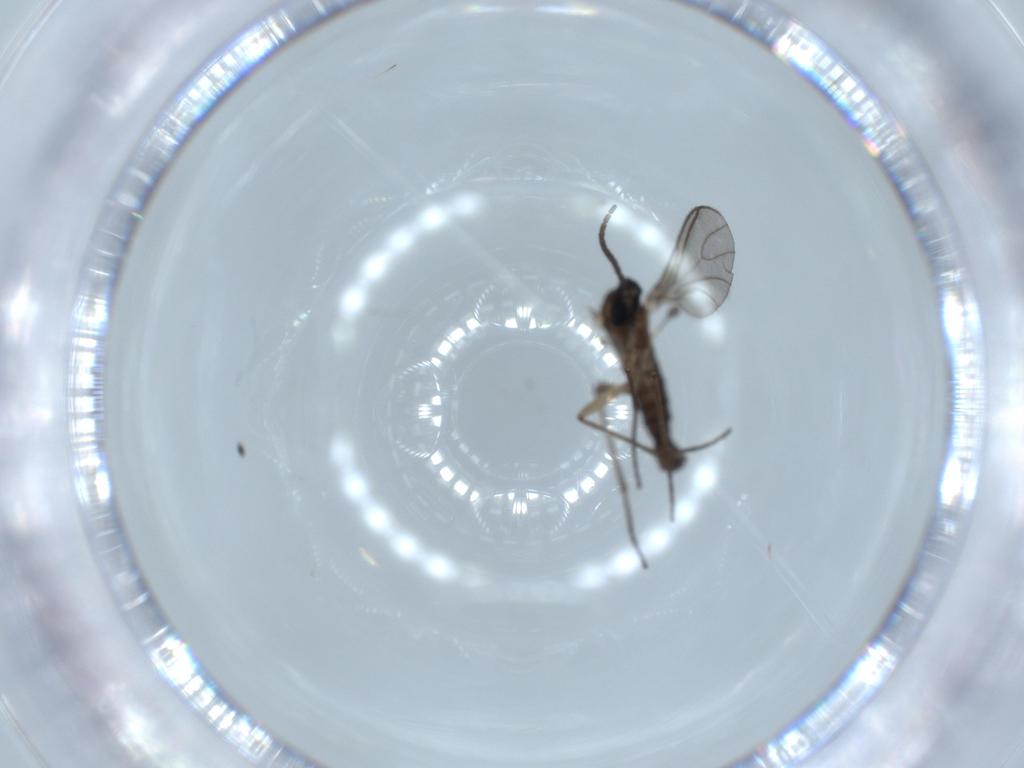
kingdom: Animalia
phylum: Arthropoda
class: Insecta
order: Diptera
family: Sciaridae
